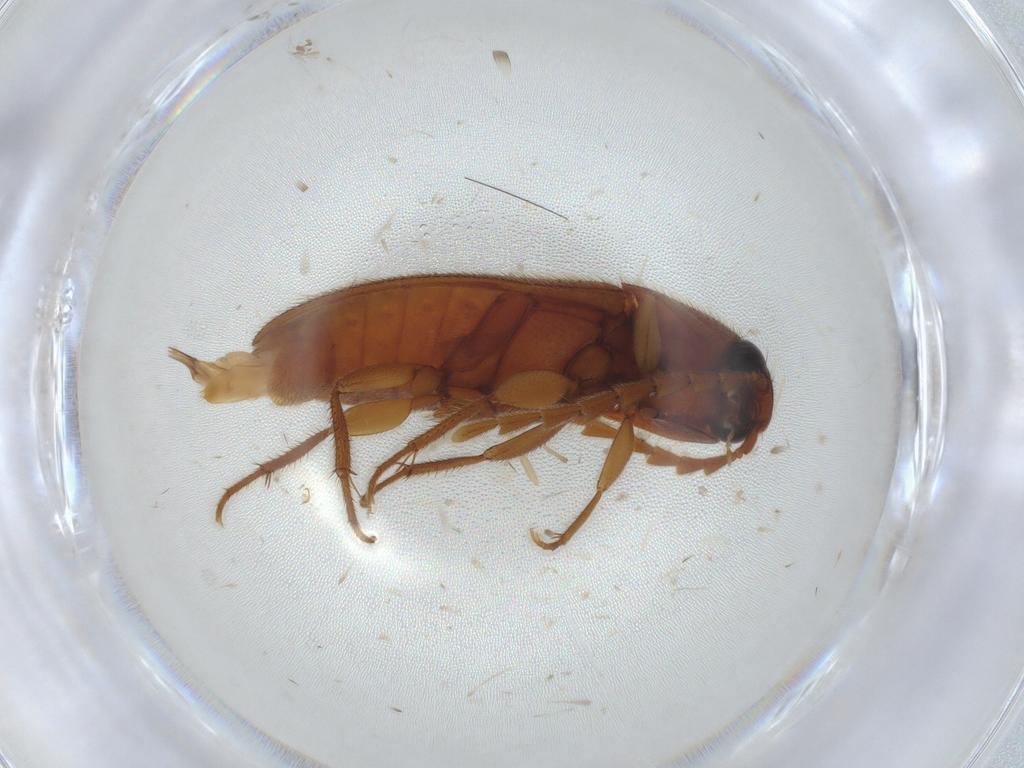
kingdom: Animalia
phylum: Arthropoda
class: Insecta
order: Coleoptera
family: Elateridae
